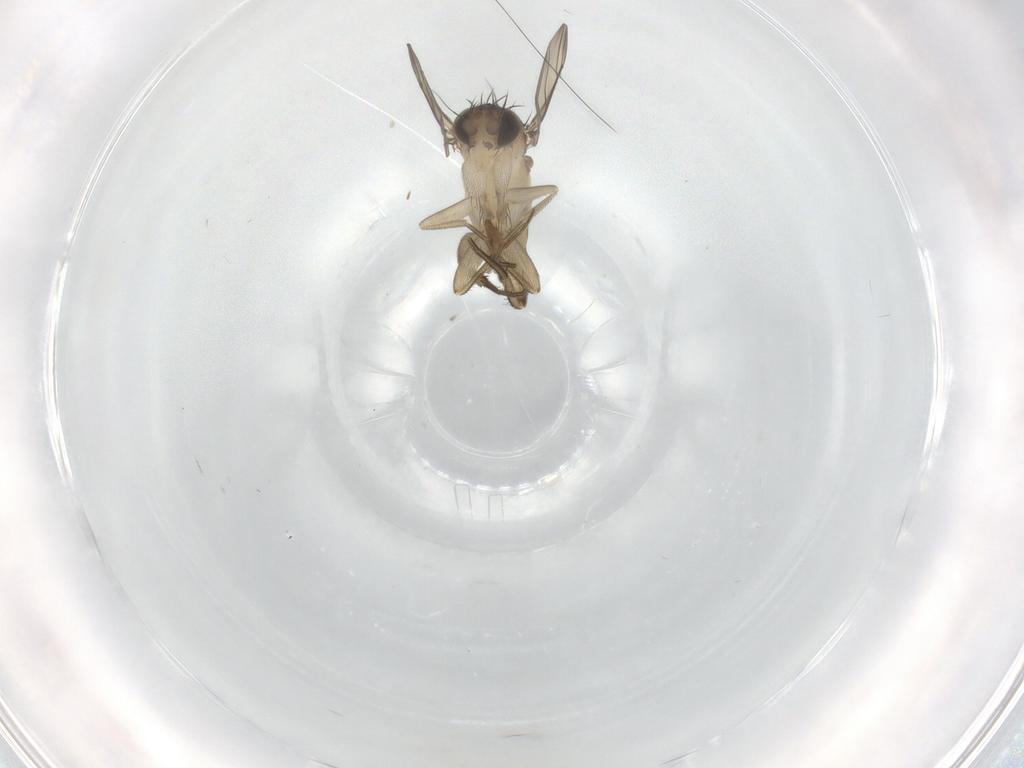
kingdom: Animalia
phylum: Arthropoda
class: Insecta
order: Diptera
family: Phoridae
